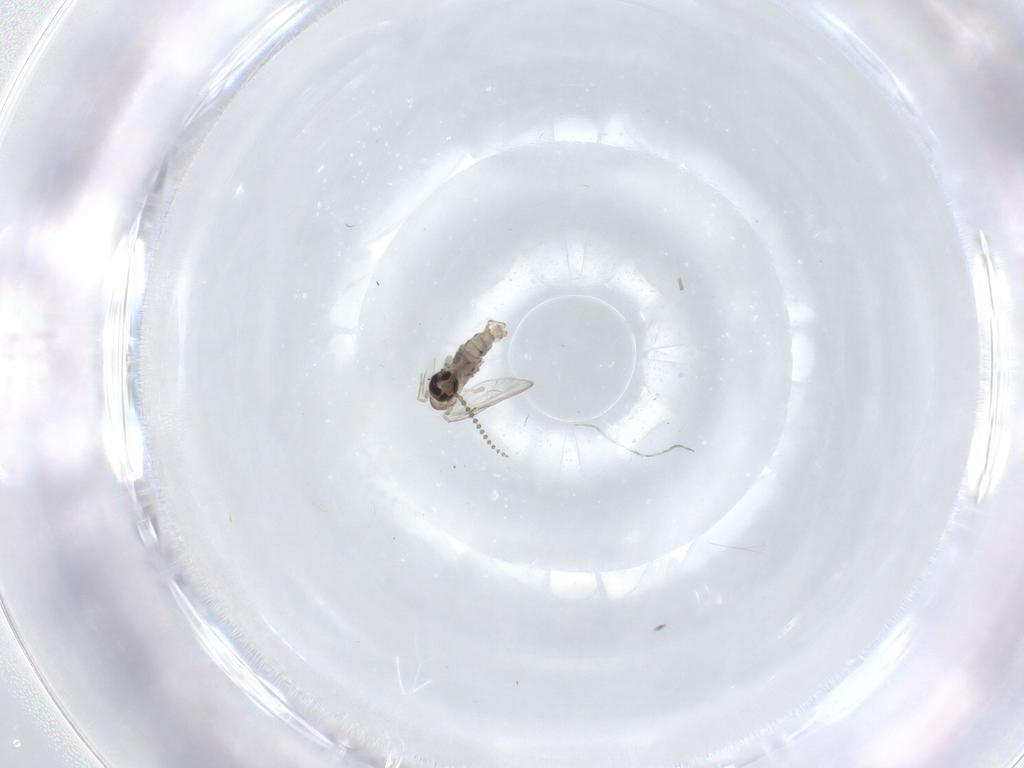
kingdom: Animalia
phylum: Arthropoda
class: Insecta
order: Diptera
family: Psychodidae
